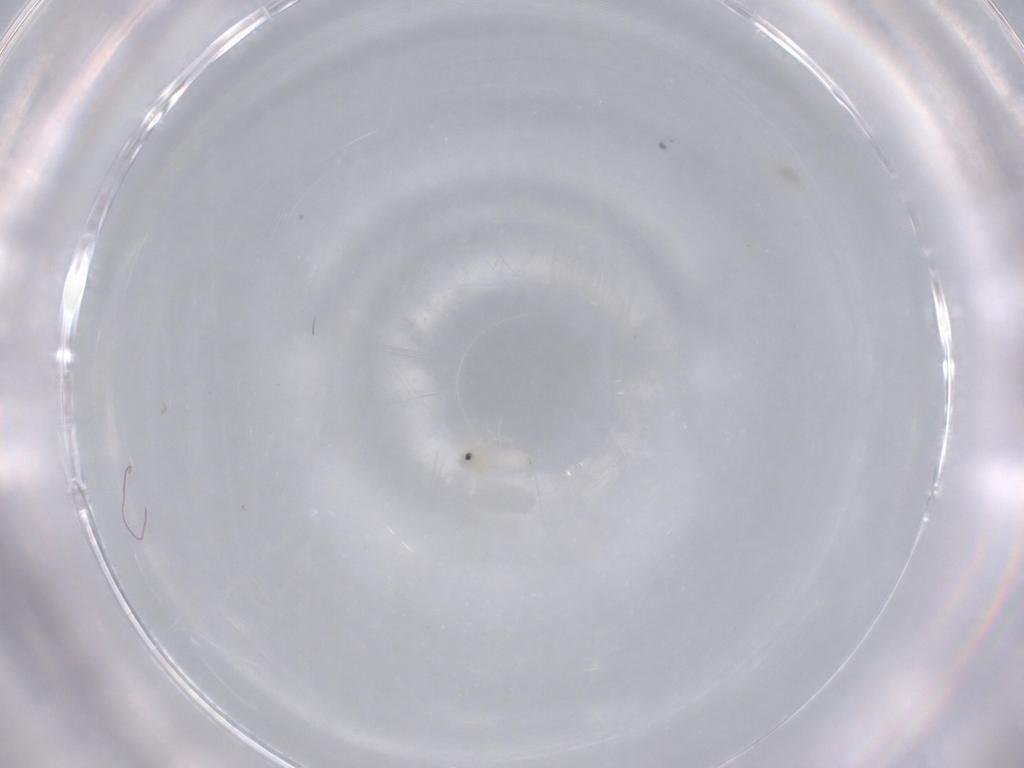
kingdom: Animalia
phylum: Arthropoda
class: Insecta
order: Hemiptera
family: Aleyrodidae
